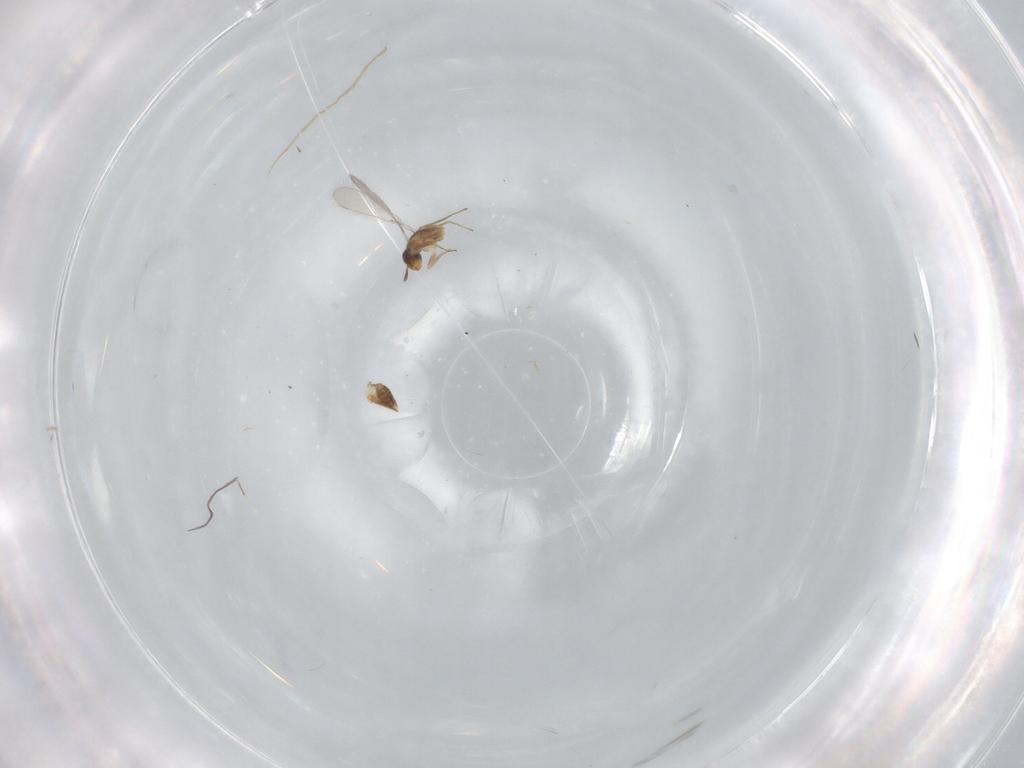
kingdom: Animalia
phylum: Arthropoda
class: Insecta
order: Hymenoptera
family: Mymaridae
